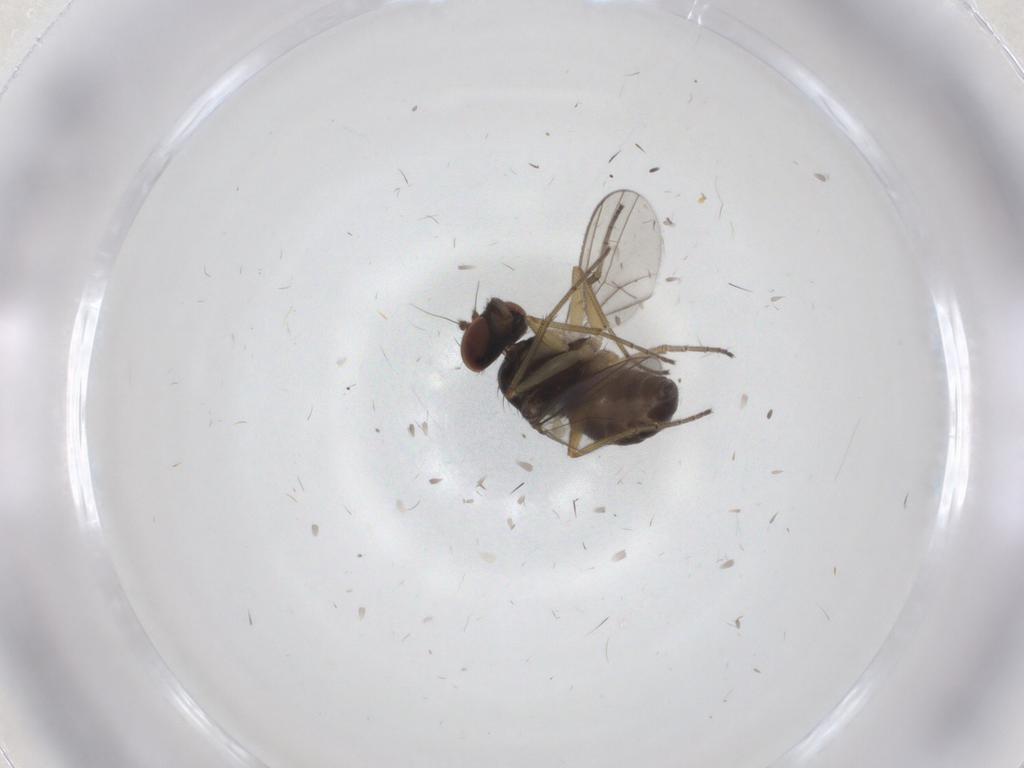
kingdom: Animalia
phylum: Arthropoda
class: Insecta
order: Diptera
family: Dolichopodidae
